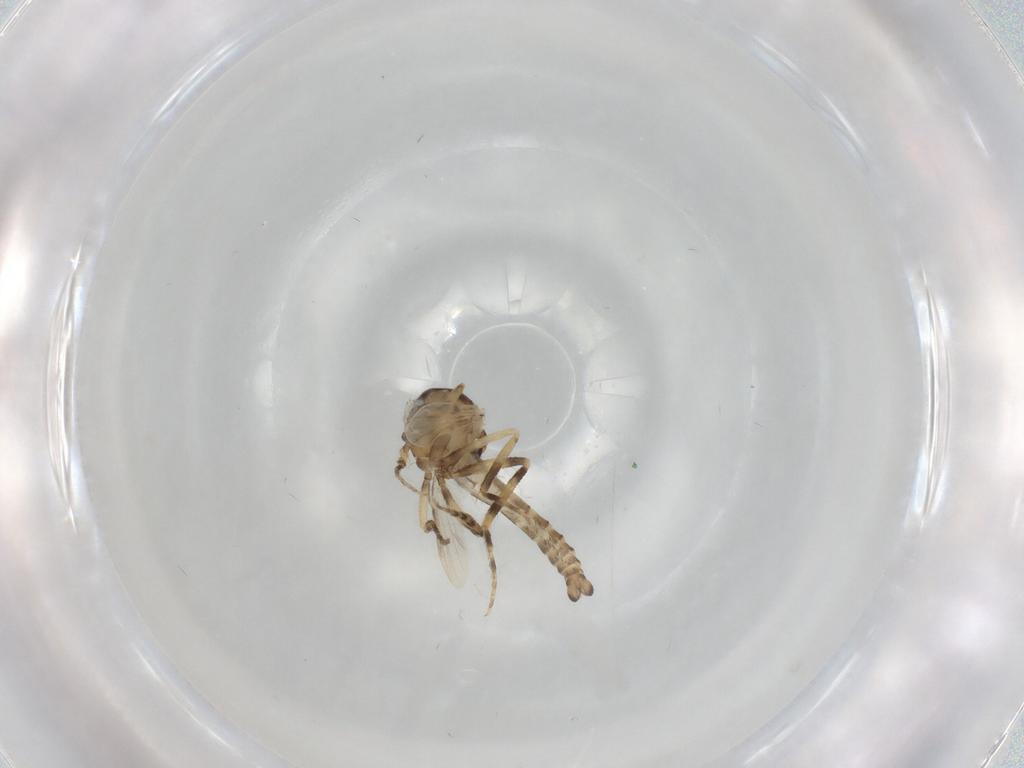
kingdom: Animalia
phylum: Arthropoda
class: Insecta
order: Diptera
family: Ceratopogonidae
